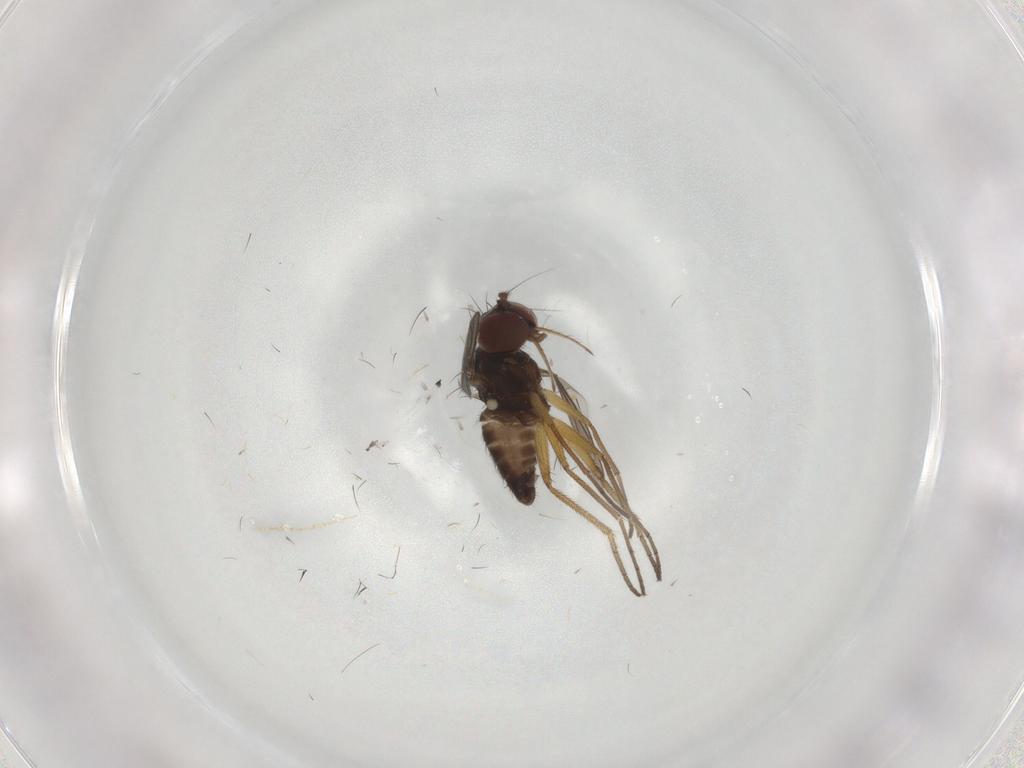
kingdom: Animalia
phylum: Arthropoda
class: Insecta
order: Diptera
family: Dolichopodidae
